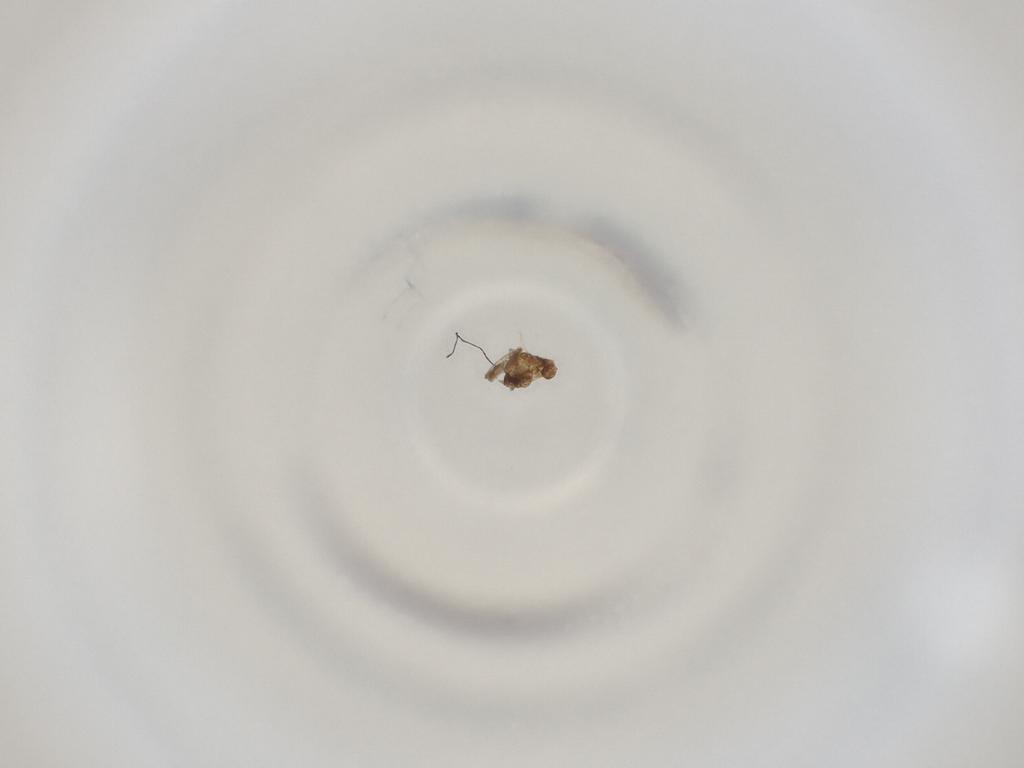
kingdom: Animalia
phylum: Arthropoda
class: Insecta
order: Diptera
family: Cecidomyiidae
